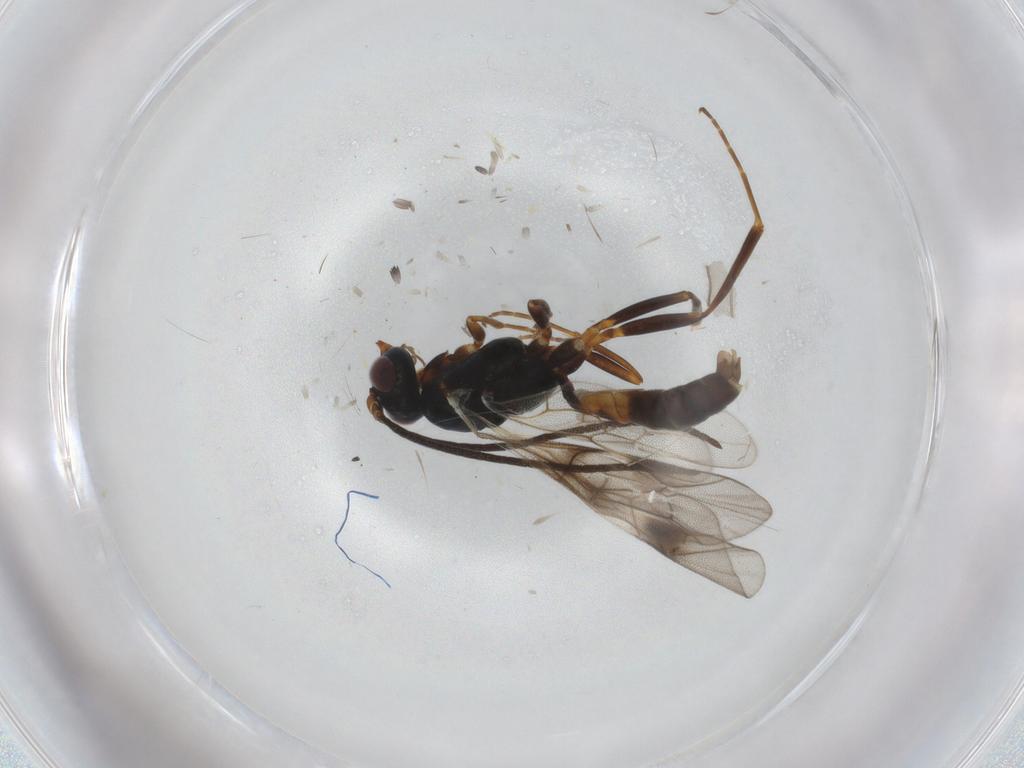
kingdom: Animalia
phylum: Arthropoda
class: Insecta
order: Hymenoptera
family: Ichneumonidae
